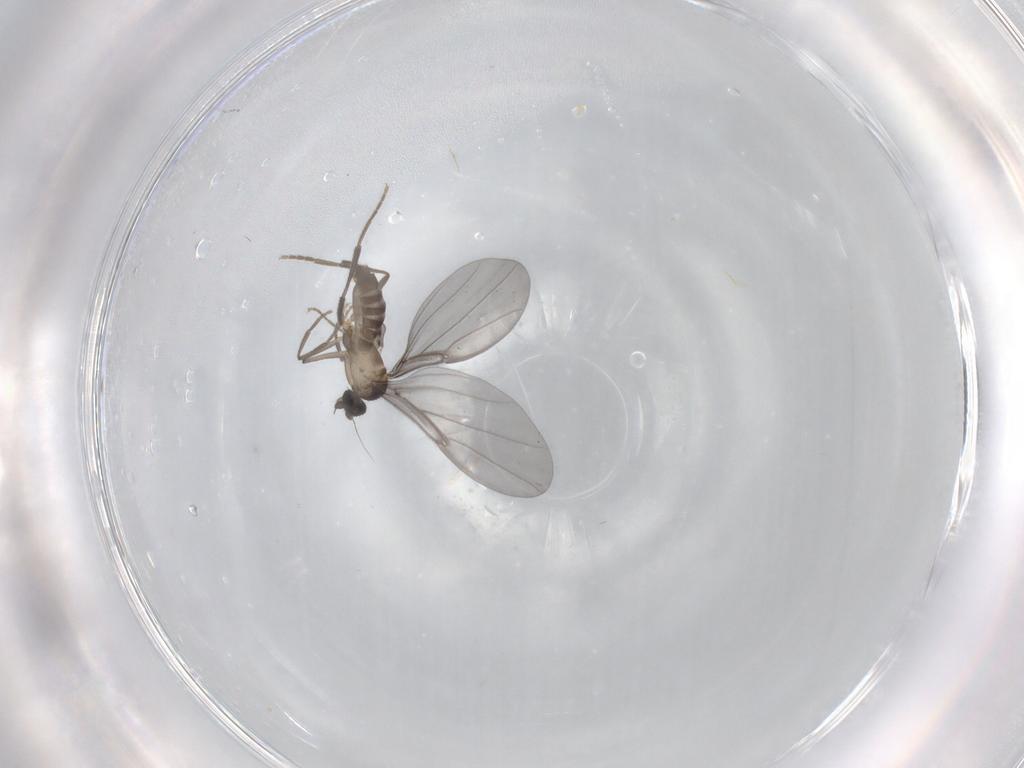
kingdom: Animalia
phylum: Arthropoda
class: Insecta
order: Diptera
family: Phoridae
